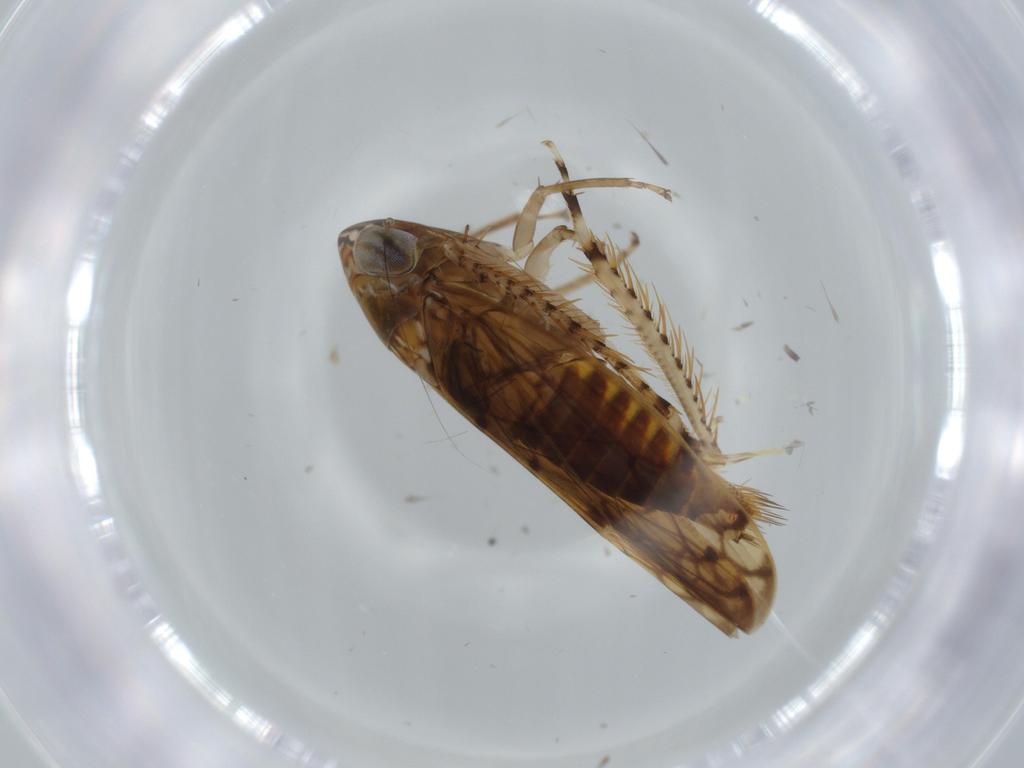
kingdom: Animalia
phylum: Arthropoda
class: Insecta
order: Hemiptera
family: Cicadellidae
